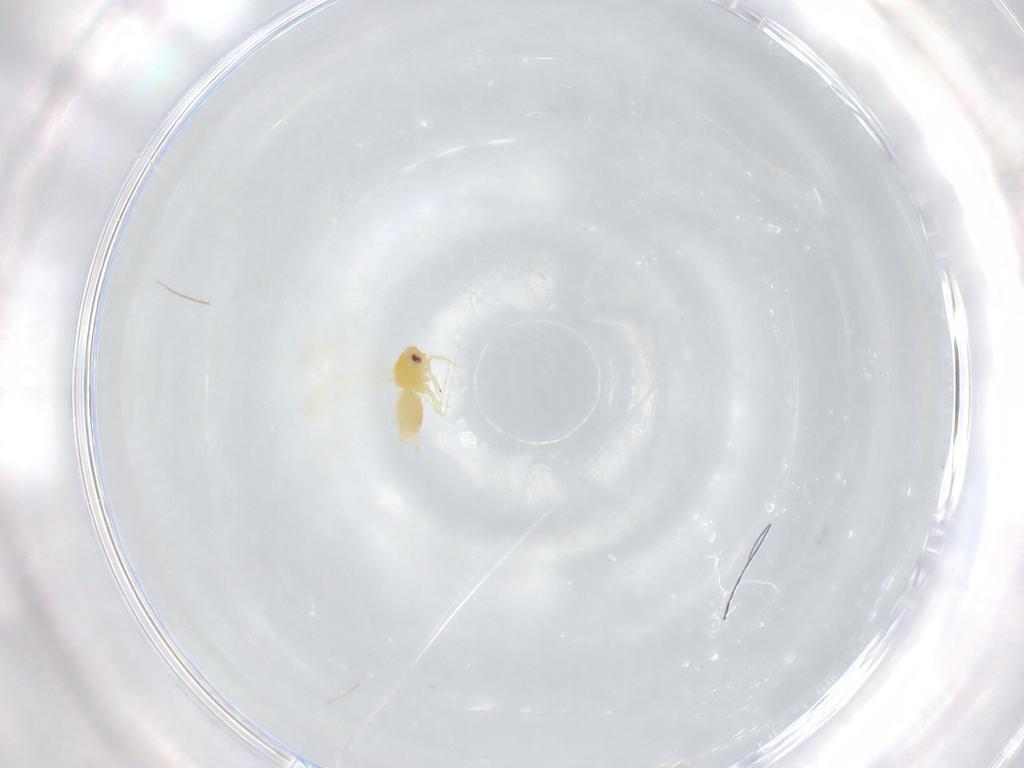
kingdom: Animalia
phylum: Arthropoda
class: Insecta
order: Hemiptera
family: Aleyrodidae
